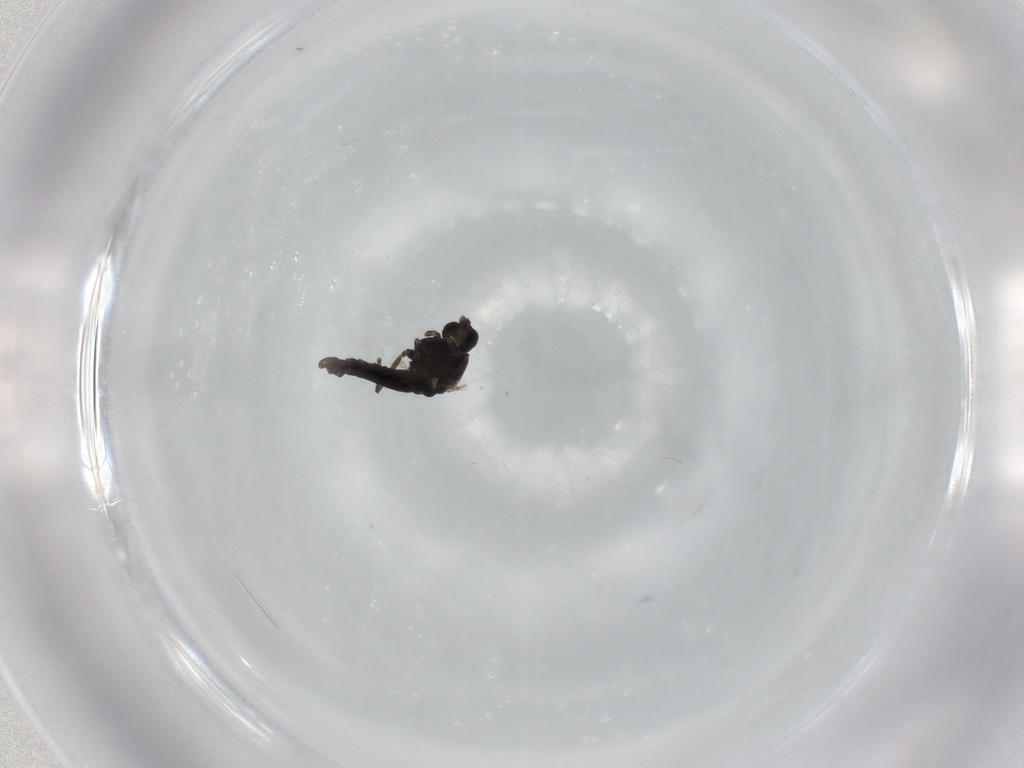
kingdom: Animalia
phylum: Arthropoda
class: Insecta
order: Diptera
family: Chironomidae
